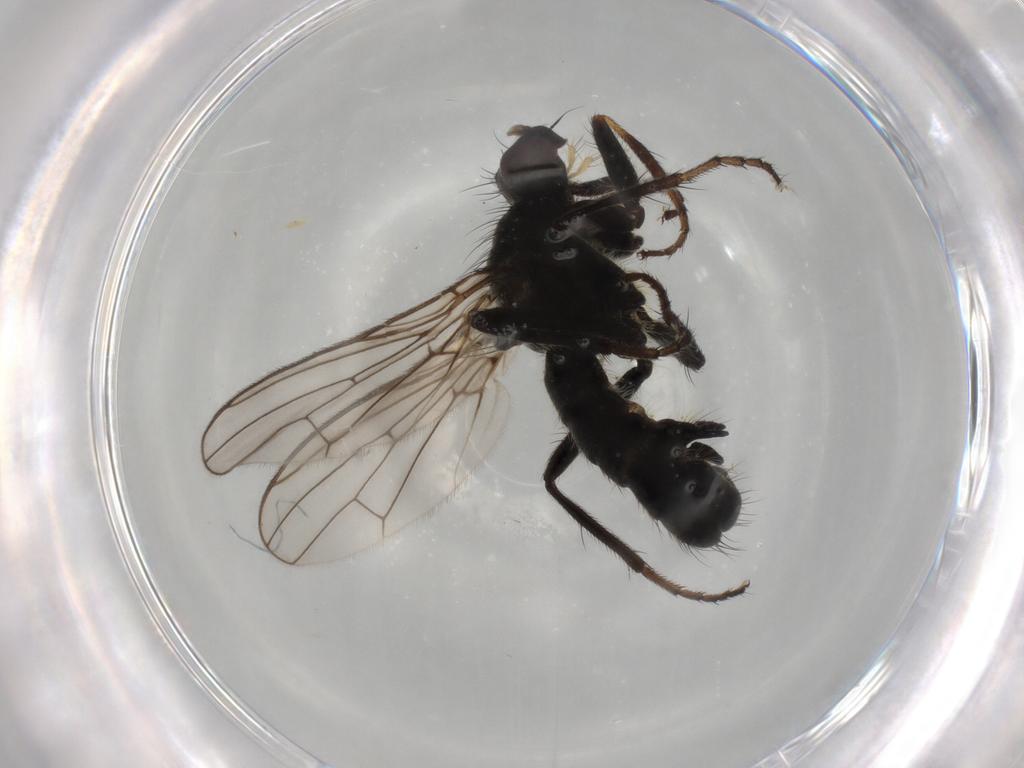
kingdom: Animalia
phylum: Arthropoda
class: Insecta
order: Diptera
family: Scathophagidae
